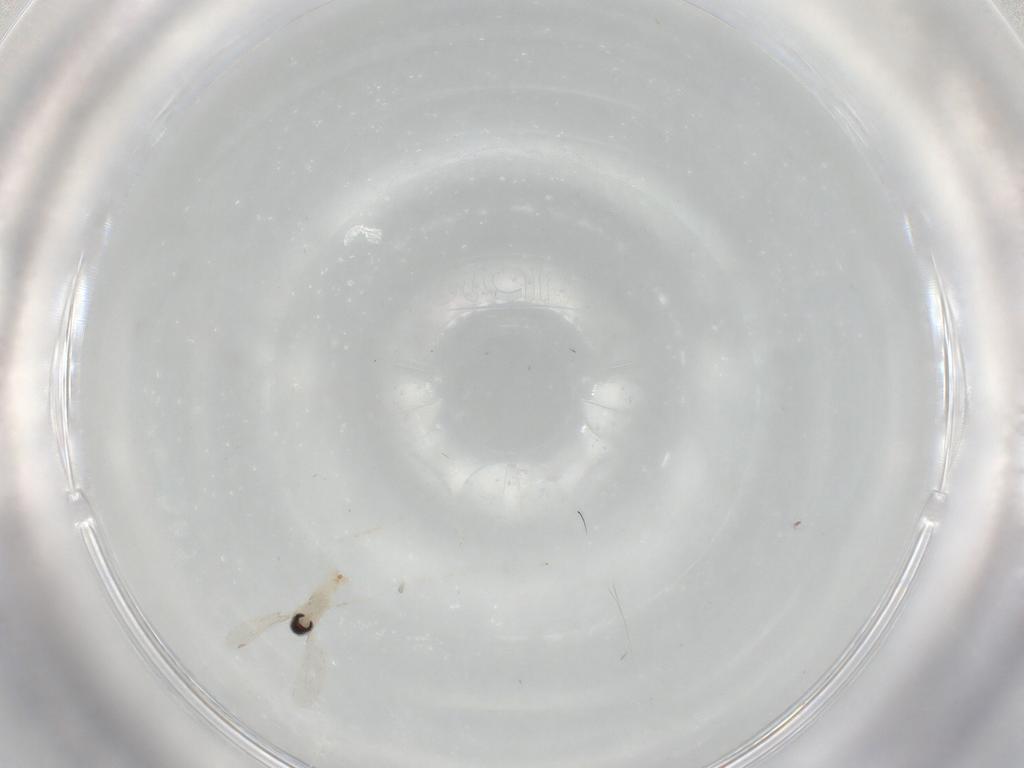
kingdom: Animalia
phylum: Arthropoda
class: Insecta
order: Diptera
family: Cecidomyiidae
